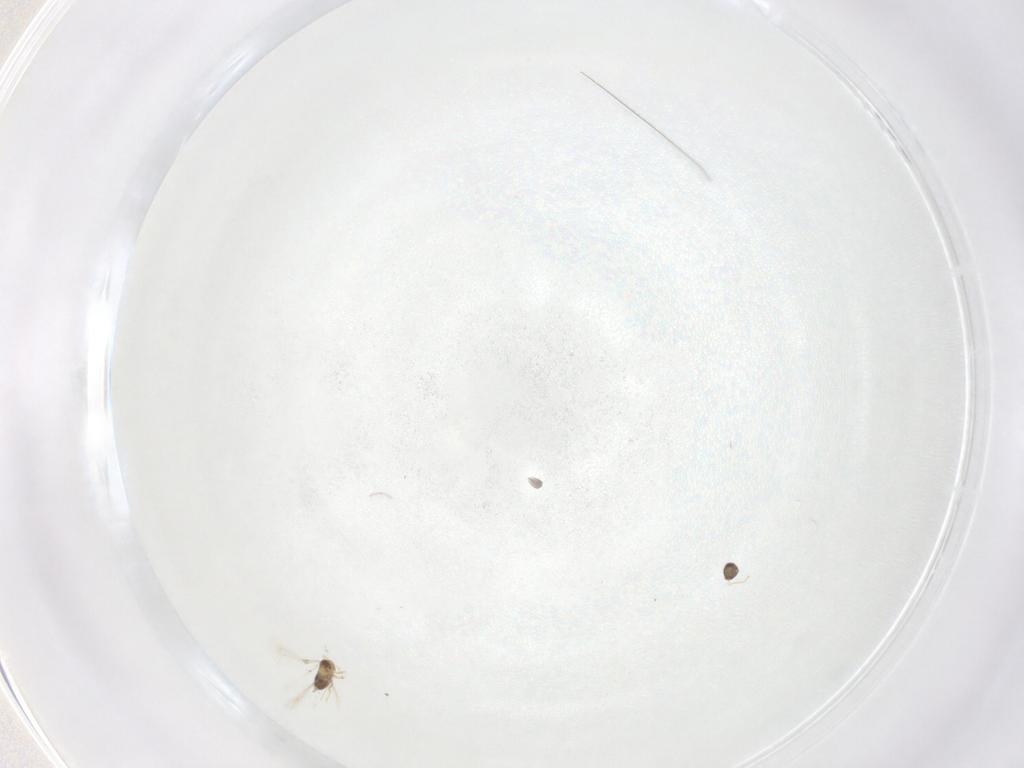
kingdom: Animalia
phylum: Arthropoda
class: Insecta
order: Hymenoptera
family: Mymaridae
